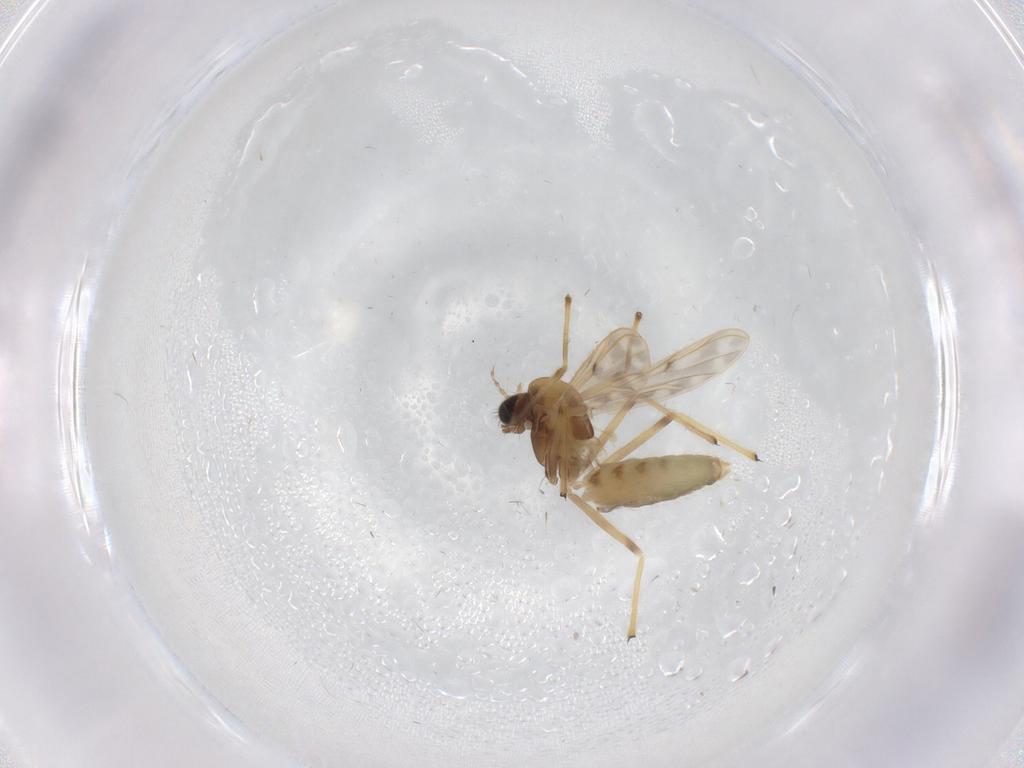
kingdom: Animalia
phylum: Arthropoda
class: Insecta
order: Diptera
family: Chironomidae
